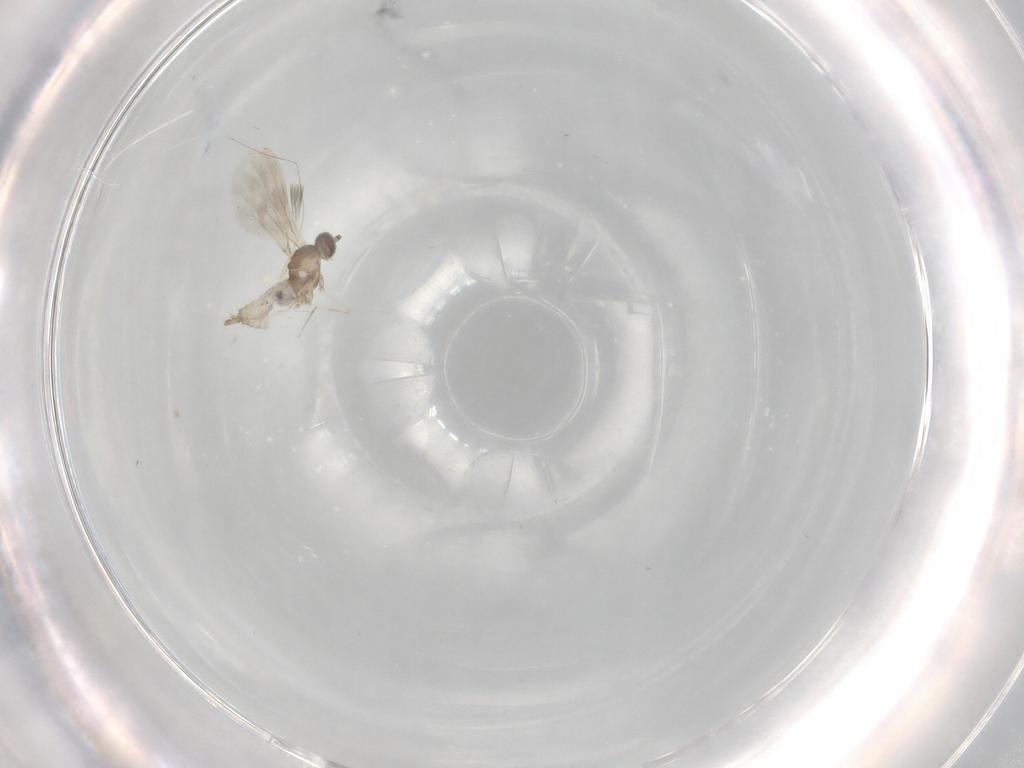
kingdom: Animalia
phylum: Arthropoda
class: Insecta
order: Diptera
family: Cecidomyiidae
